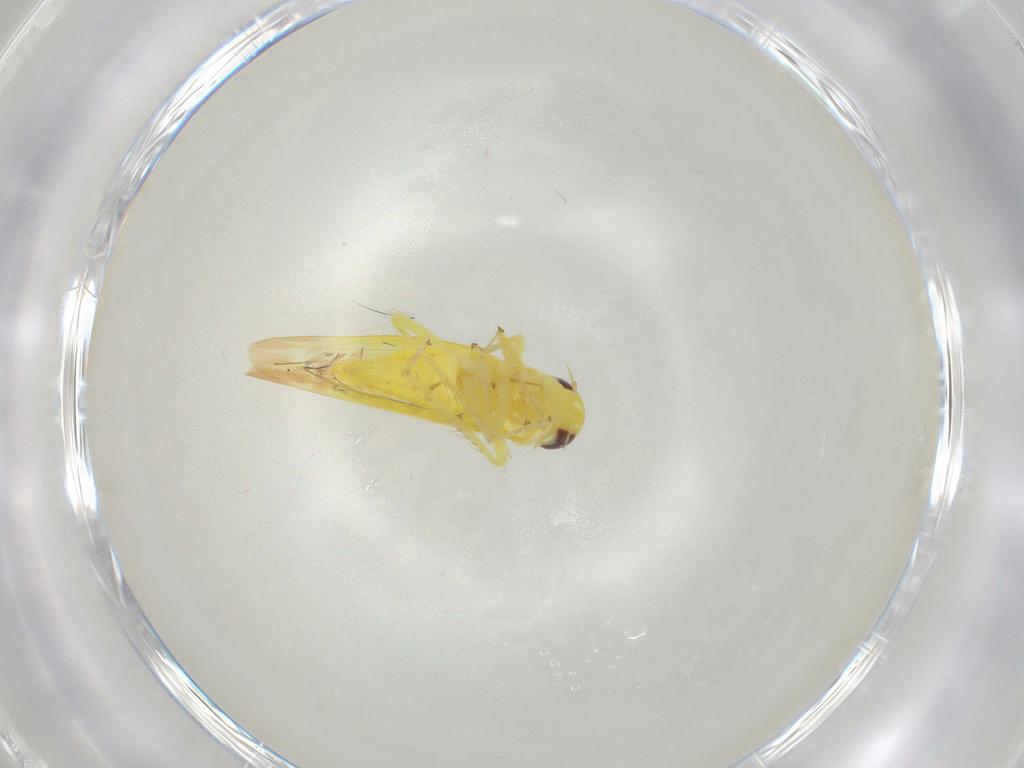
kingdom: Animalia
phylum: Arthropoda
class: Insecta
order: Hemiptera
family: Cicadellidae
